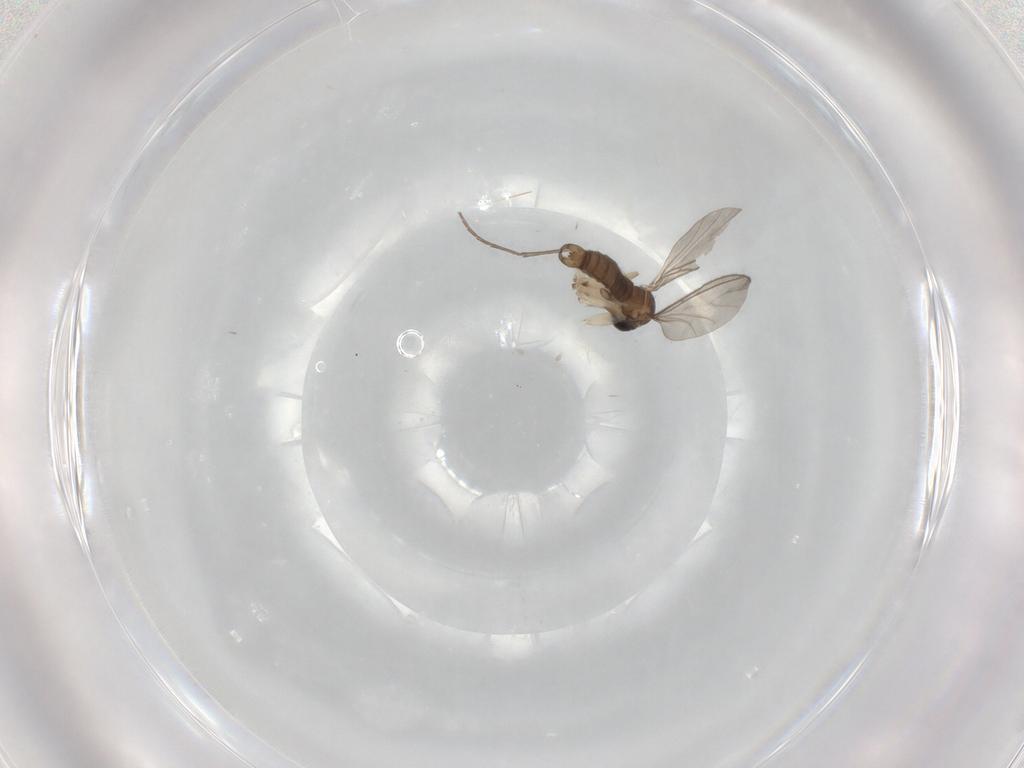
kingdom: Animalia
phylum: Arthropoda
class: Insecta
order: Diptera
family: Sciaridae
